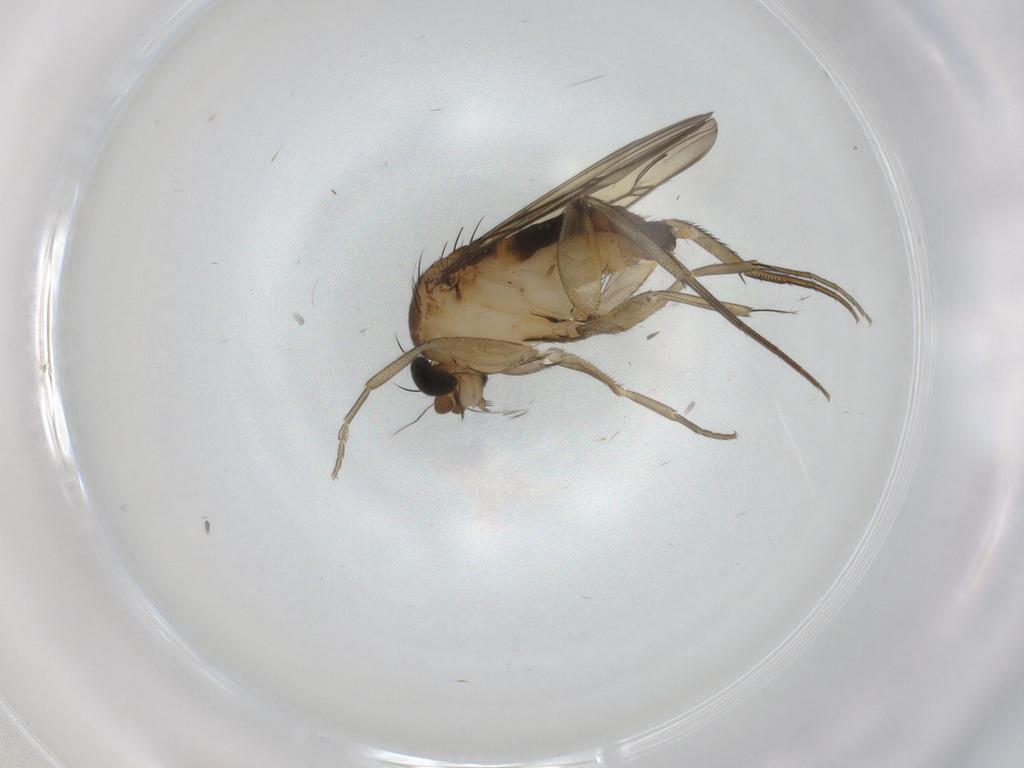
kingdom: Animalia
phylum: Arthropoda
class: Insecta
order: Diptera
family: Phoridae
